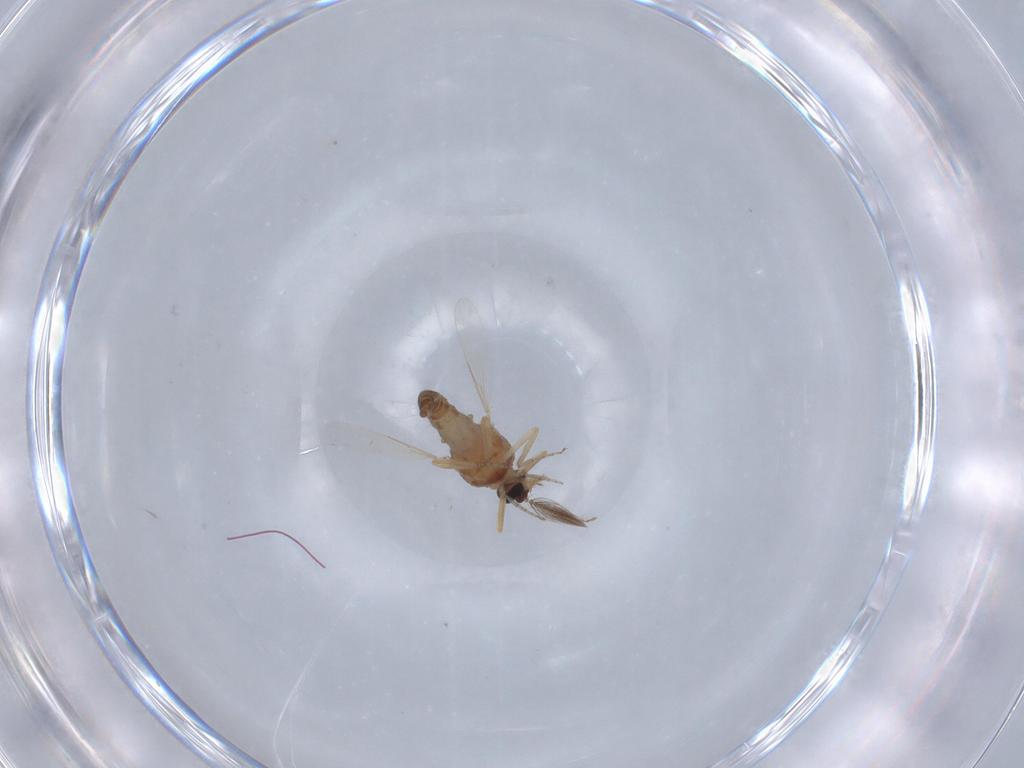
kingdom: Animalia
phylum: Arthropoda
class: Insecta
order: Diptera
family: Ceratopogonidae
